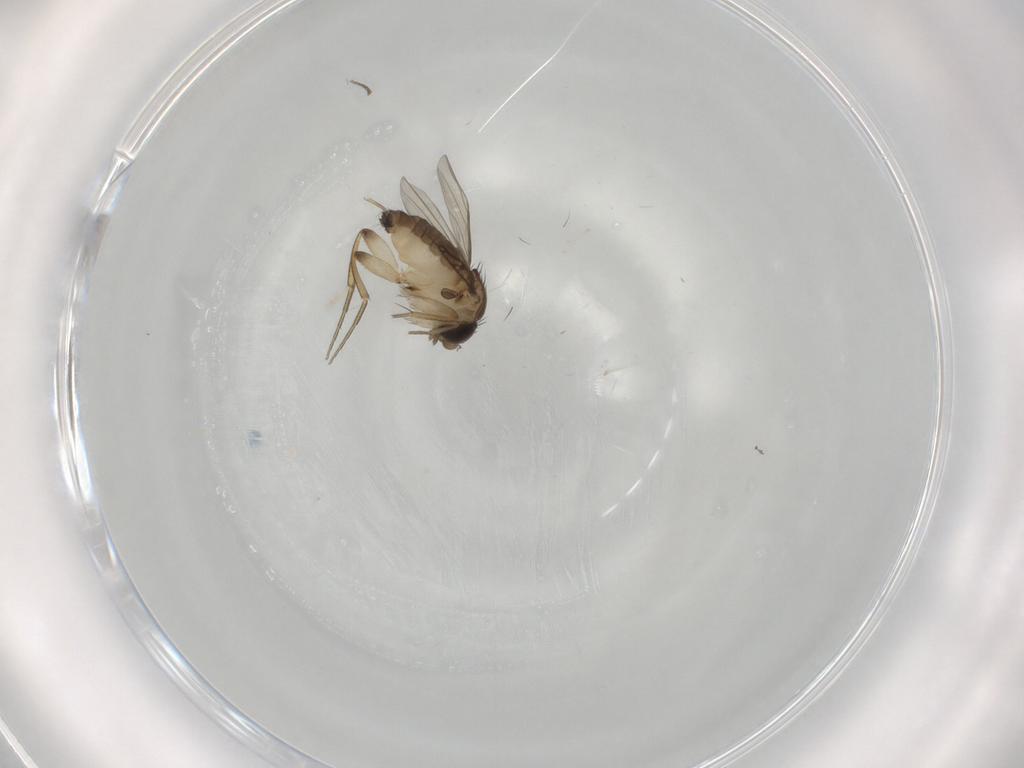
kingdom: Animalia
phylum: Arthropoda
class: Insecta
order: Diptera
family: Phoridae
